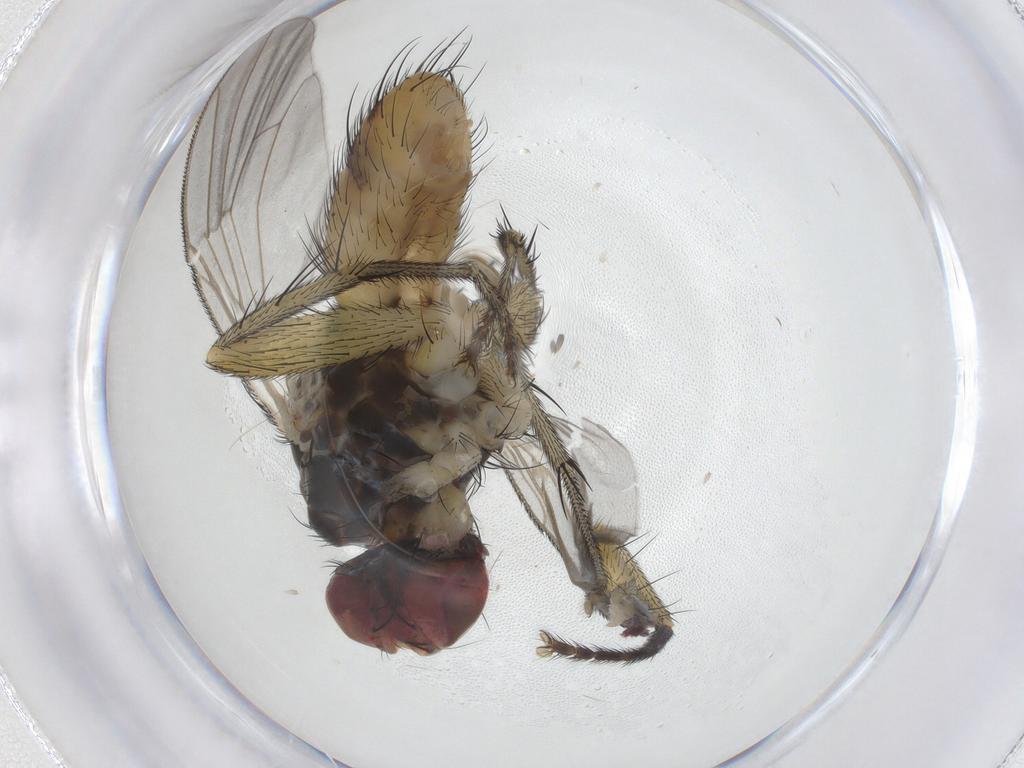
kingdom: Animalia
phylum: Arthropoda
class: Insecta
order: Diptera
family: Muscidae
